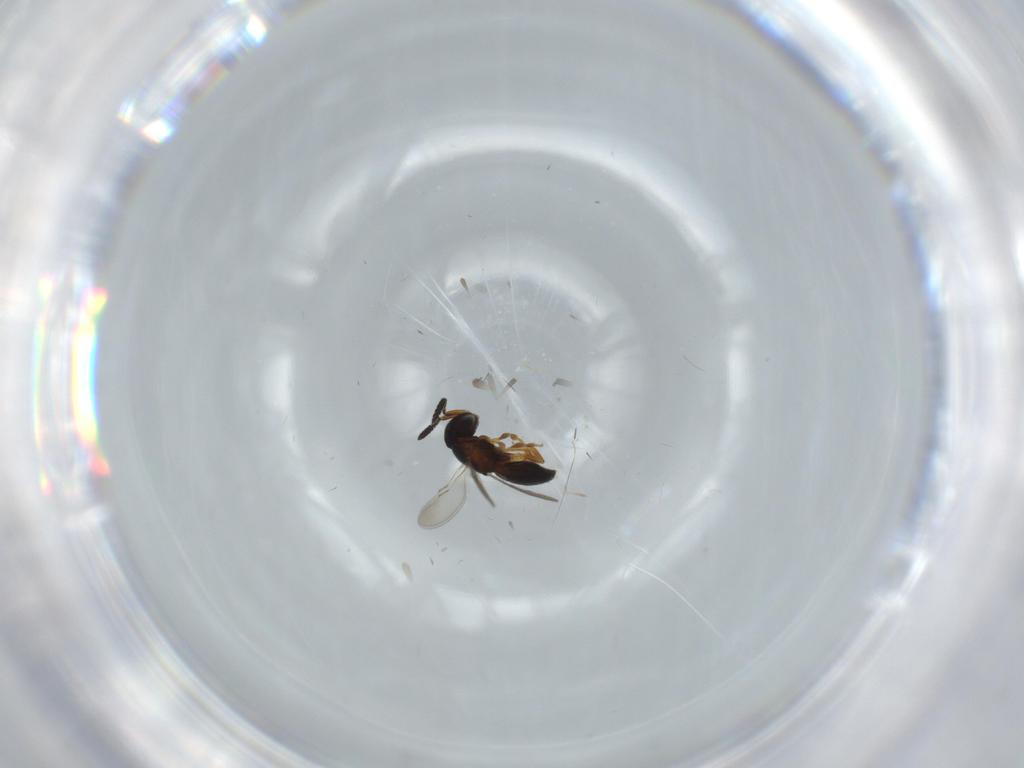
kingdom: Animalia
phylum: Arthropoda
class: Insecta
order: Hymenoptera
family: Scelionidae
